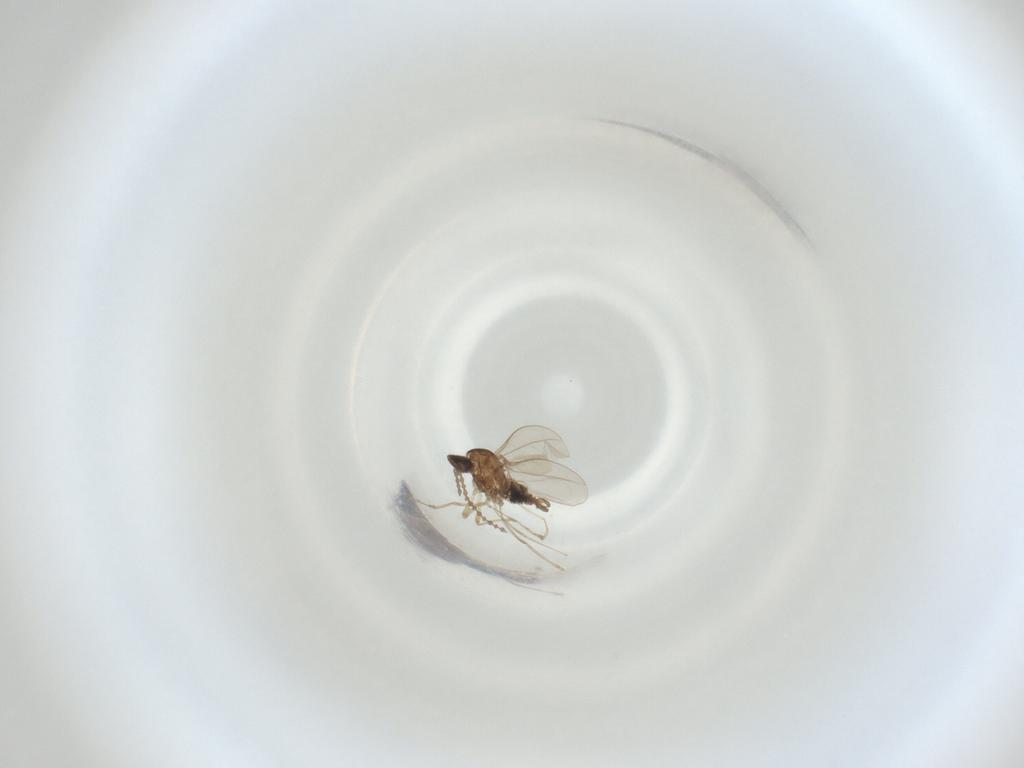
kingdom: Animalia
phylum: Arthropoda
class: Insecta
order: Diptera
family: Cecidomyiidae
